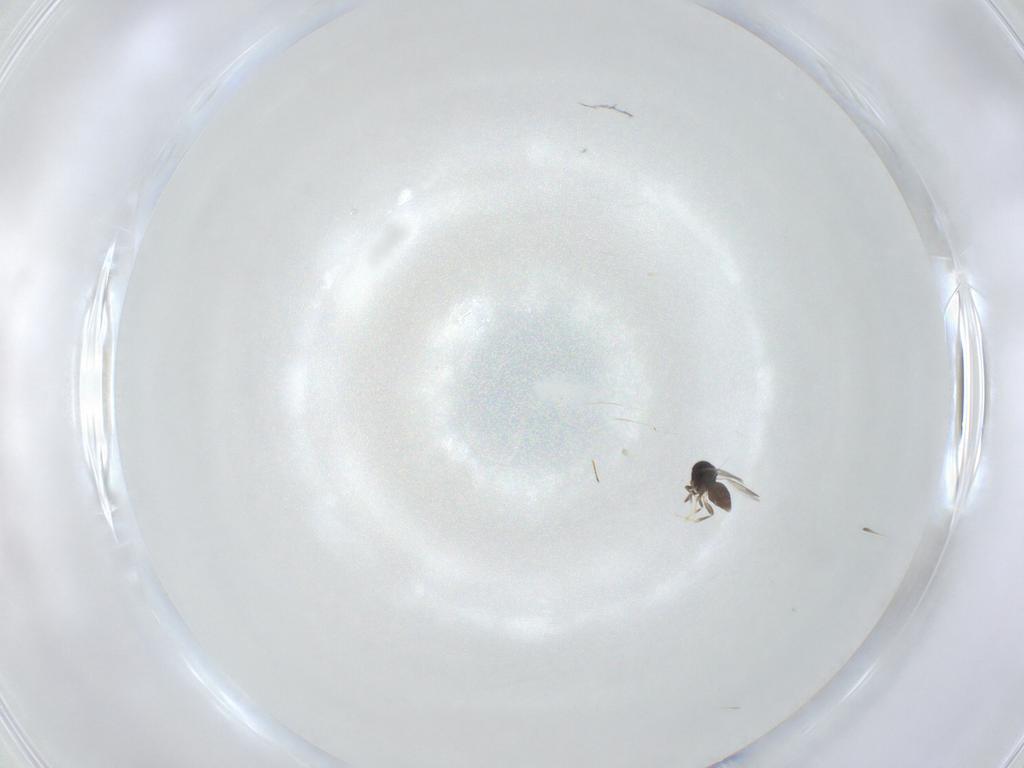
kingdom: Animalia
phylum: Arthropoda
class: Insecta
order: Hymenoptera
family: Scelionidae
